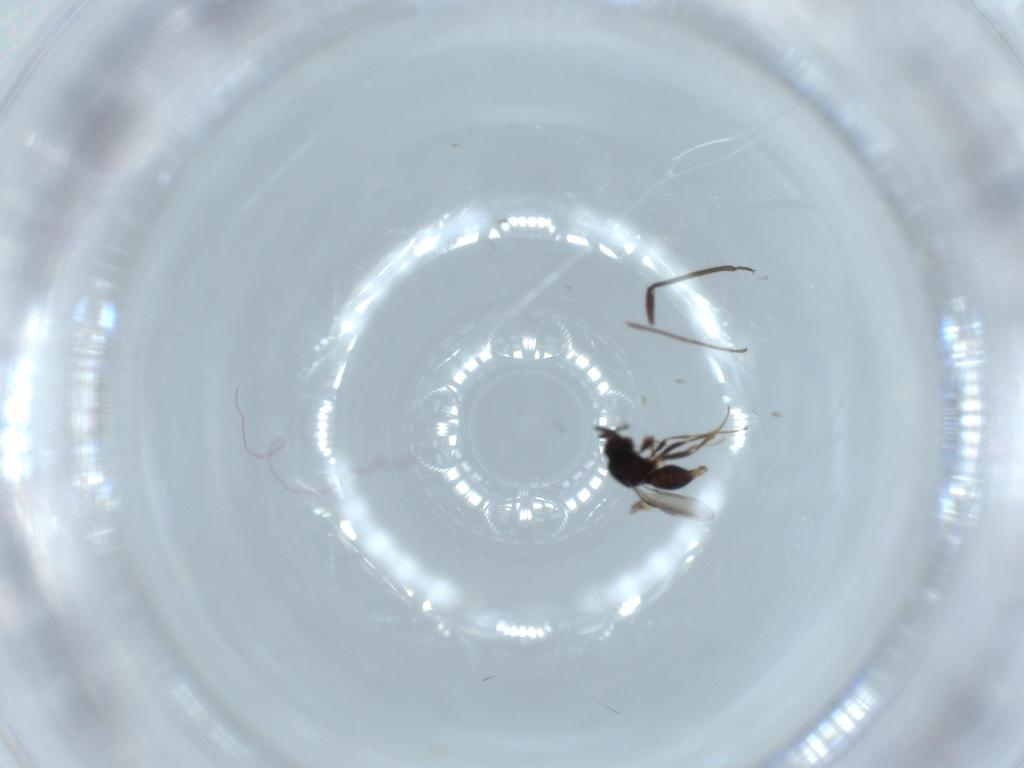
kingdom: Animalia
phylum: Arthropoda
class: Insecta
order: Hymenoptera
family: Megaspilidae
